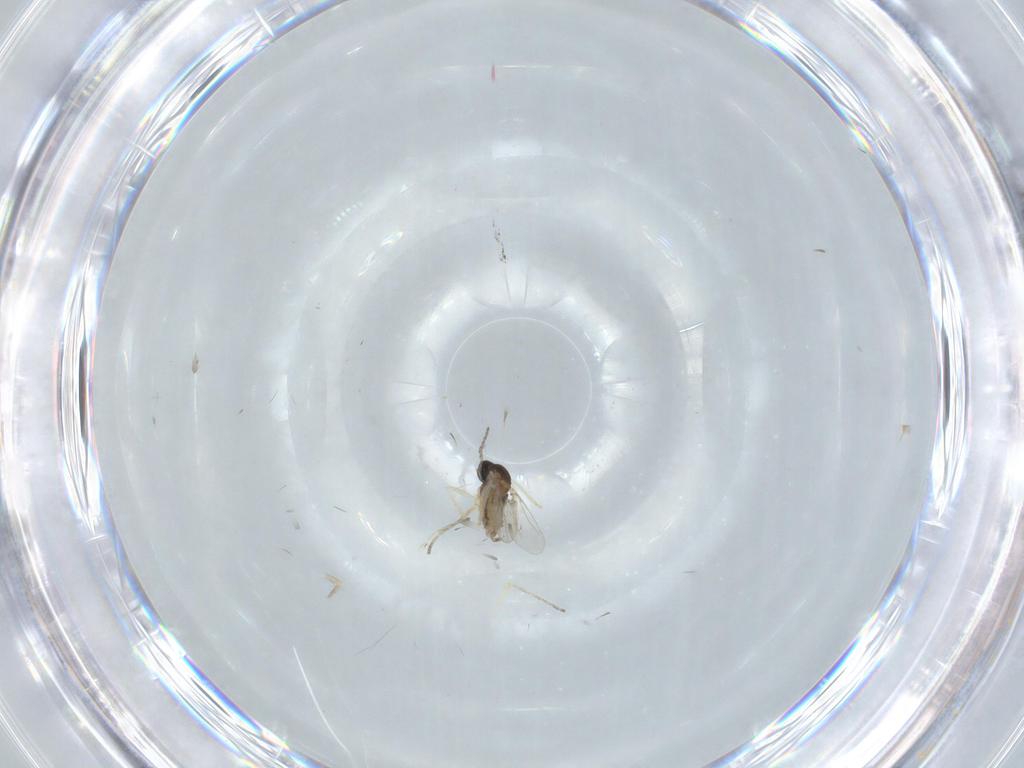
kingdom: Animalia
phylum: Arthropoda
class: Insecta
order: Diptera
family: Cecidomyiidae
